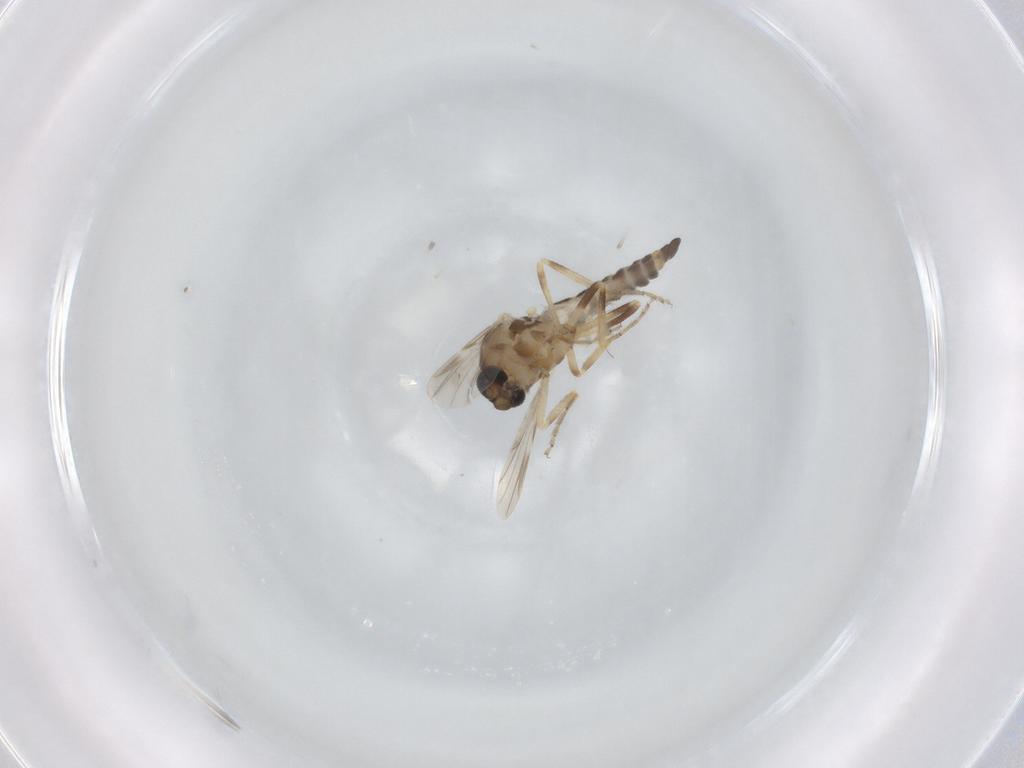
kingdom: Animalia
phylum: Arthropoda
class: Insecta
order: Diptera
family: Ceratopogonidae
